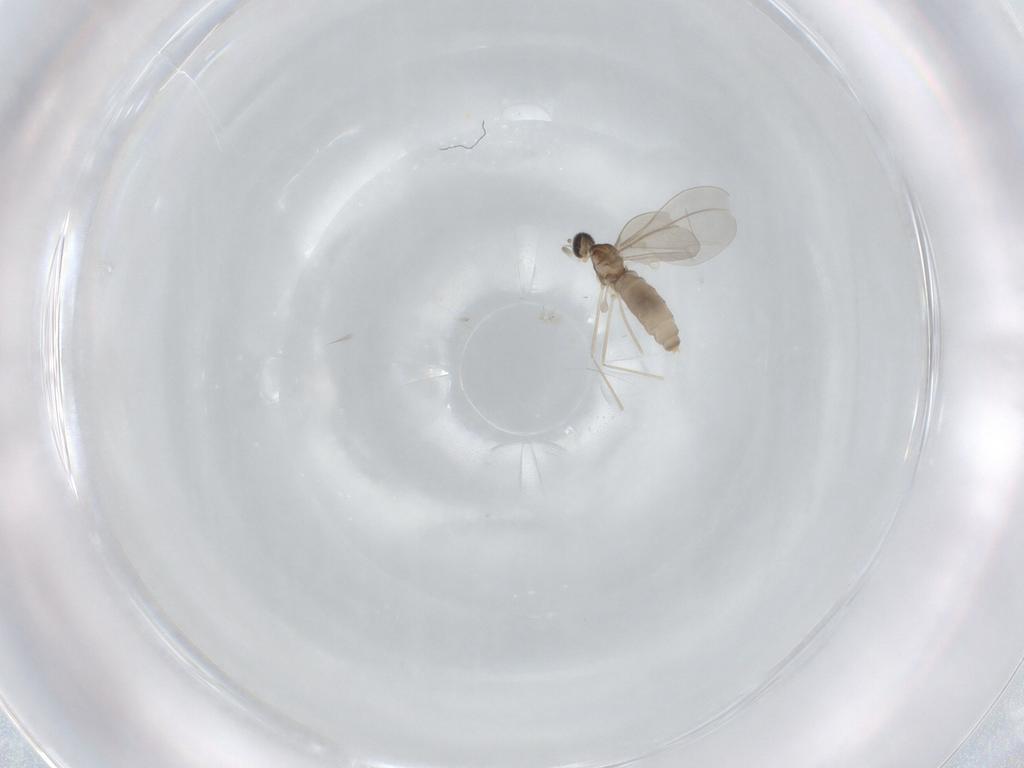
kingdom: Animalia
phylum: Arthropoda
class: Insecta
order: Diptera
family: Cecidomyiidae
